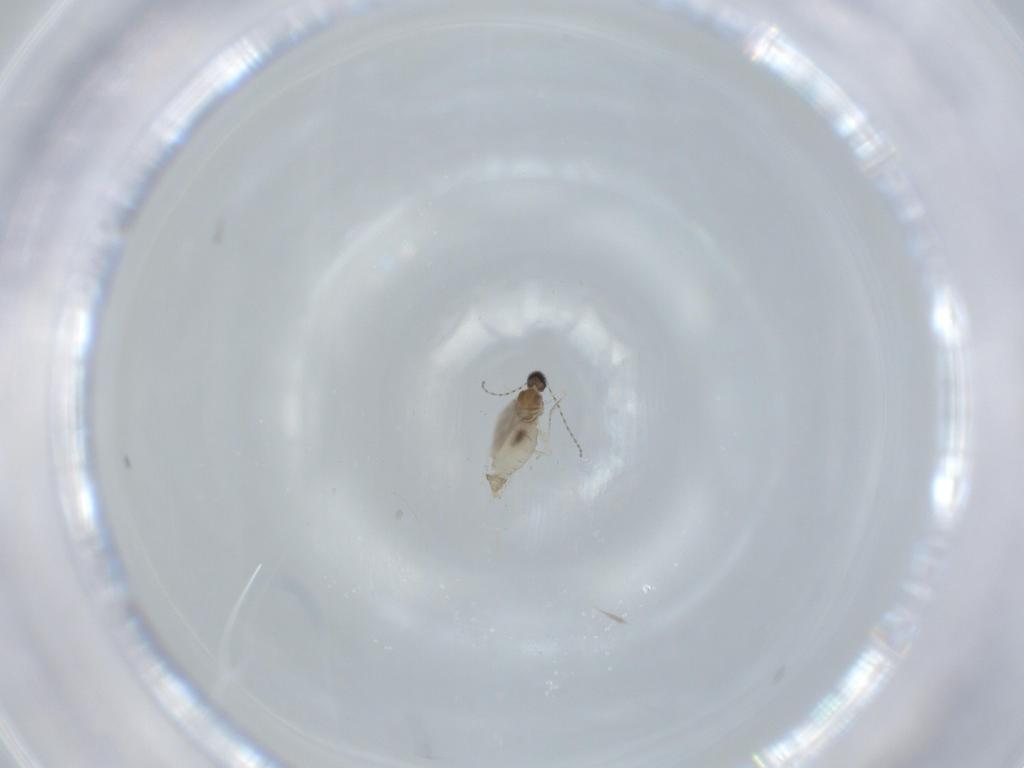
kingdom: Animalia
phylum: Arthropoda
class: Insecta
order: Diptera
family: Cecidomyiidae
